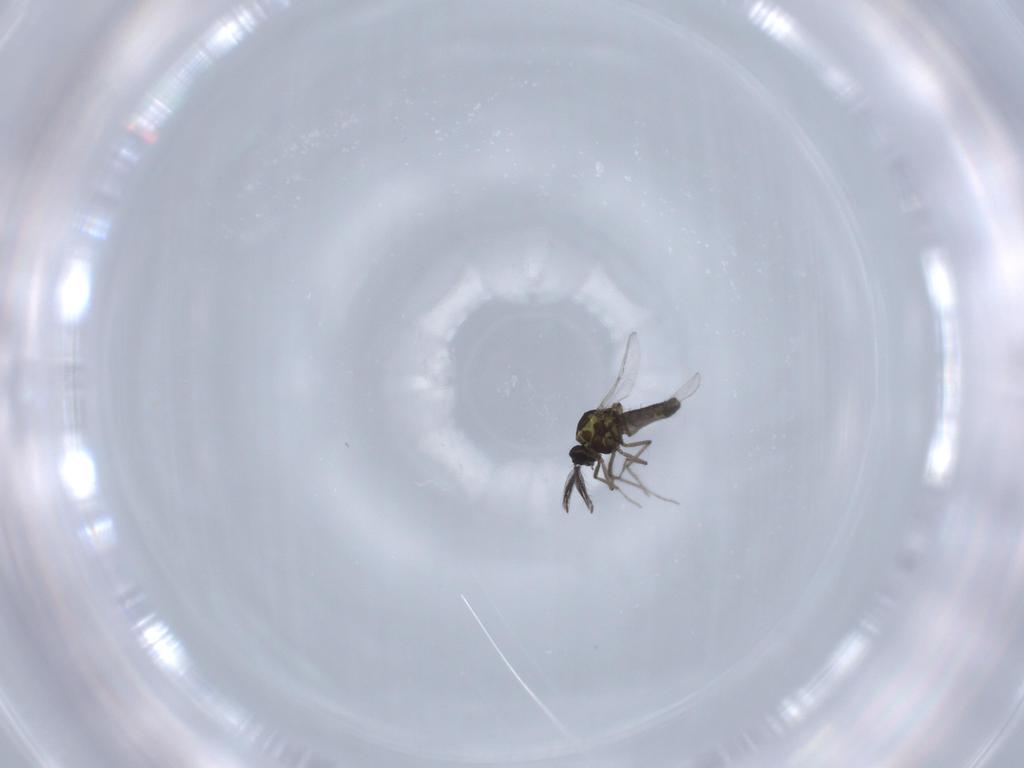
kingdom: Animalia
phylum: Arthropoda
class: Insecta
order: Diptera
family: Ceratopogonidae
